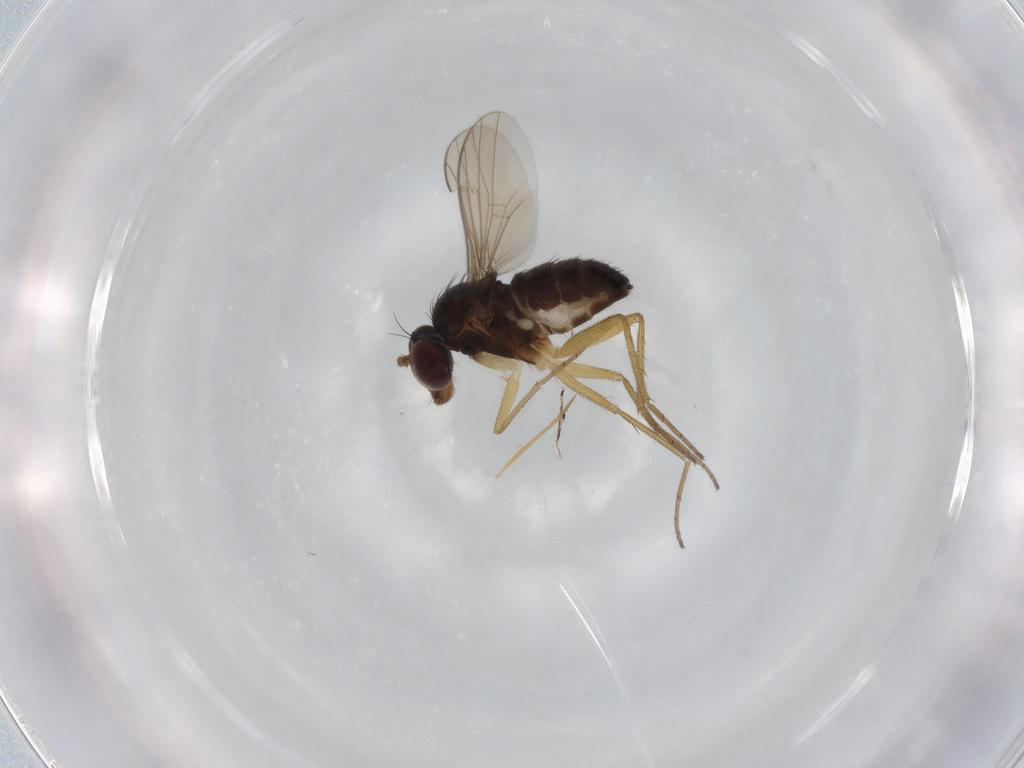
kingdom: Animalia
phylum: Arthropoda
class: Insecta
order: Diptera
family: Dolichopodidae
